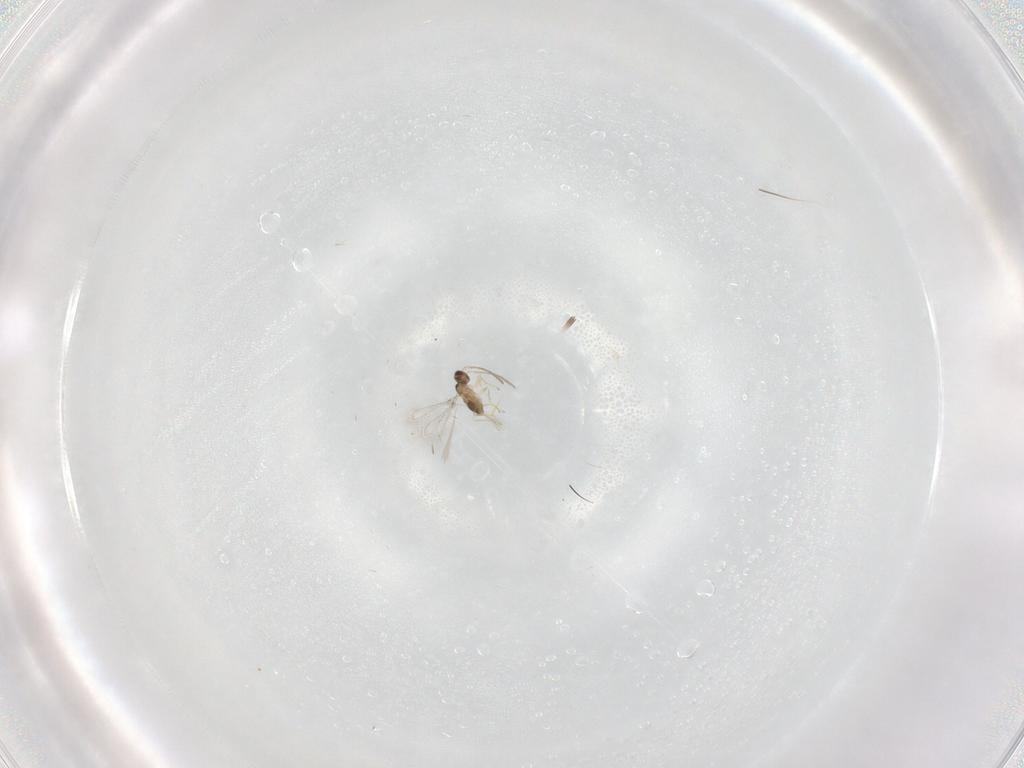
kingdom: Animalia
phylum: Arthropoda
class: Insecta
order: Hymenoptera
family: Mymaridae
